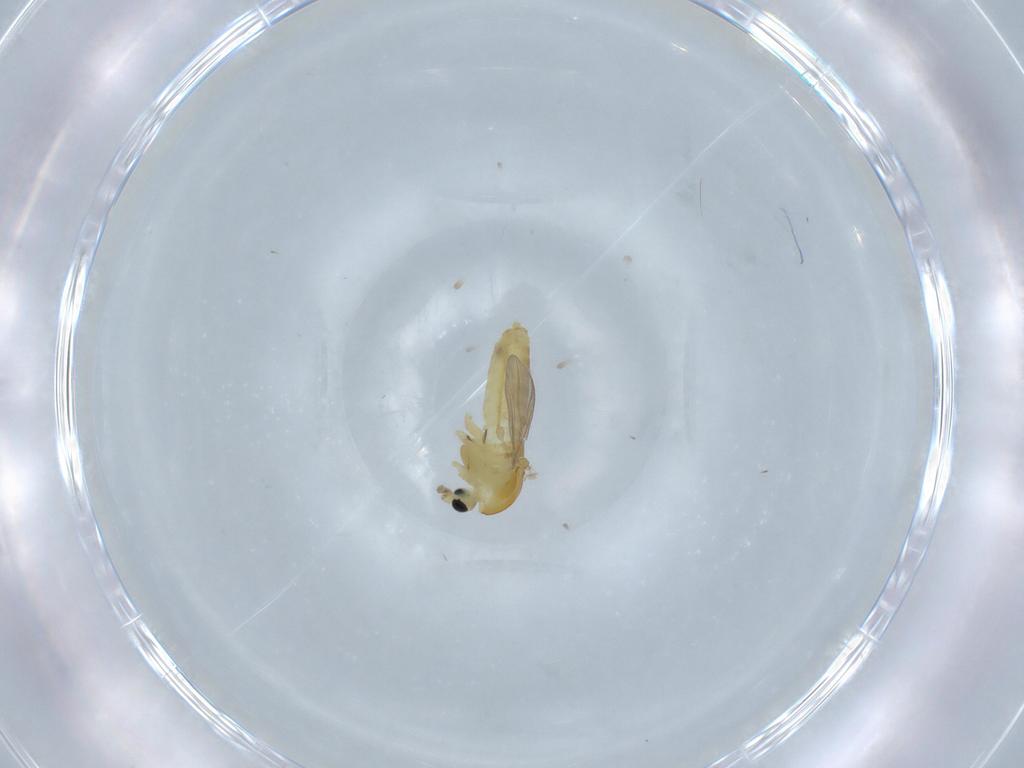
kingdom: Animalia
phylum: Arthropoda
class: Insecta
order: Diptera
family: Chironomidae
